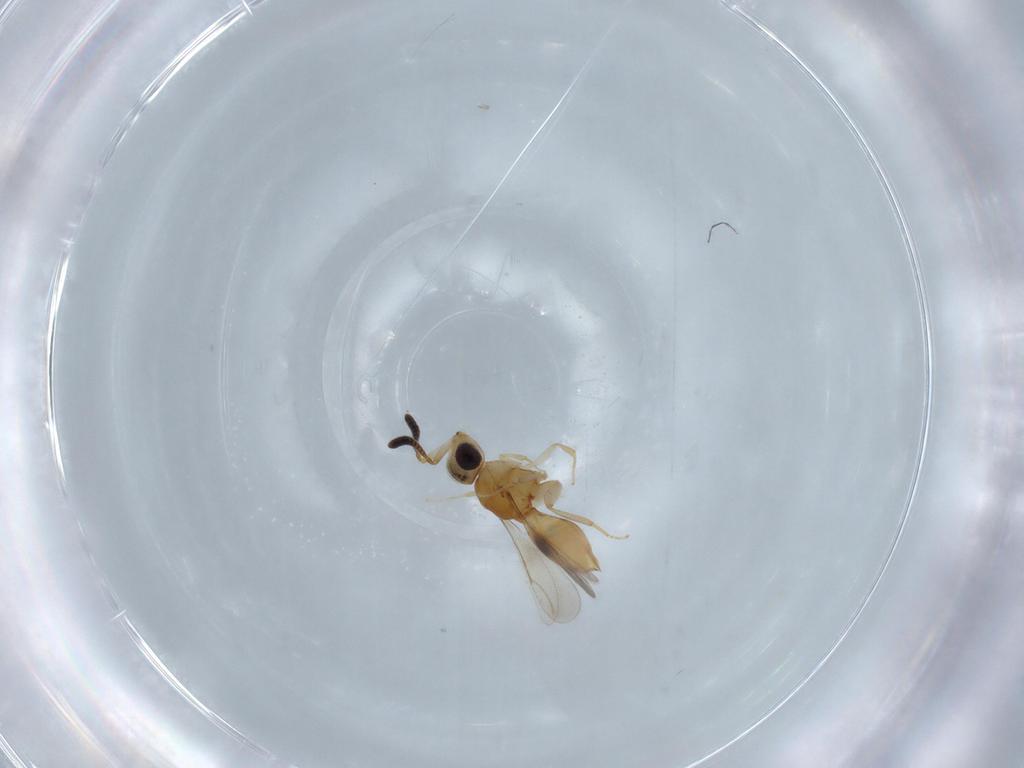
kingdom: Animalia
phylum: Arthropoda
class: Insecta
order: Hymenoptera
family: Ceraphronidae
